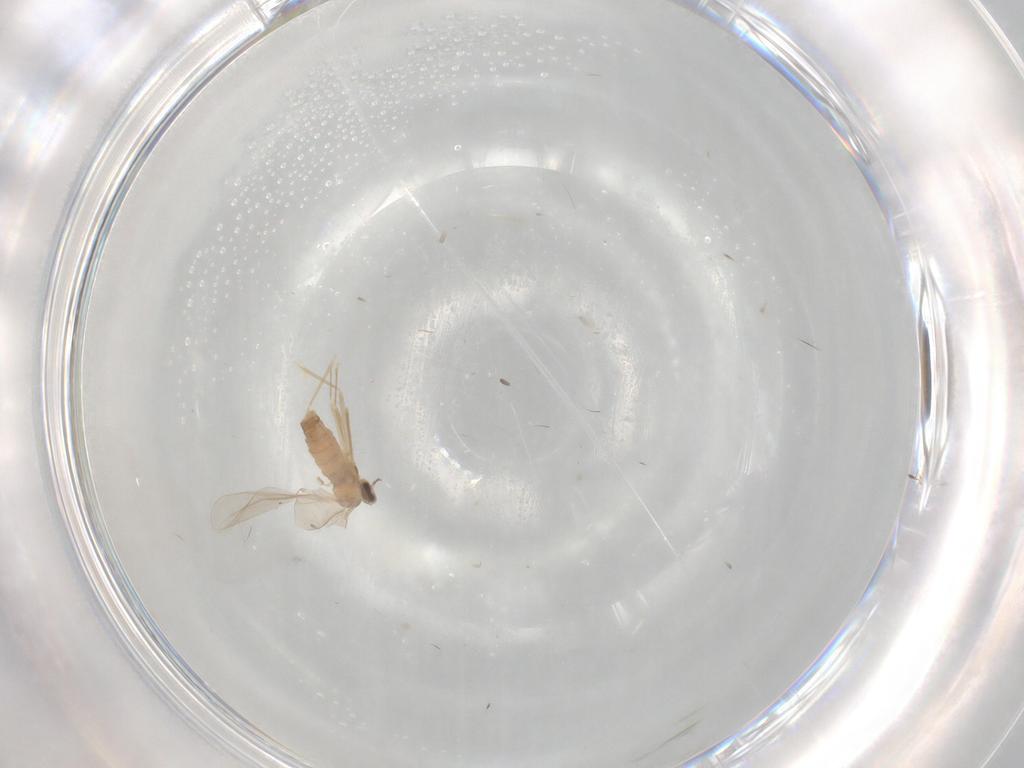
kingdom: Animalia
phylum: Arthropoda
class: Insecta
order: Diptera
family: Cecidomyiidae
